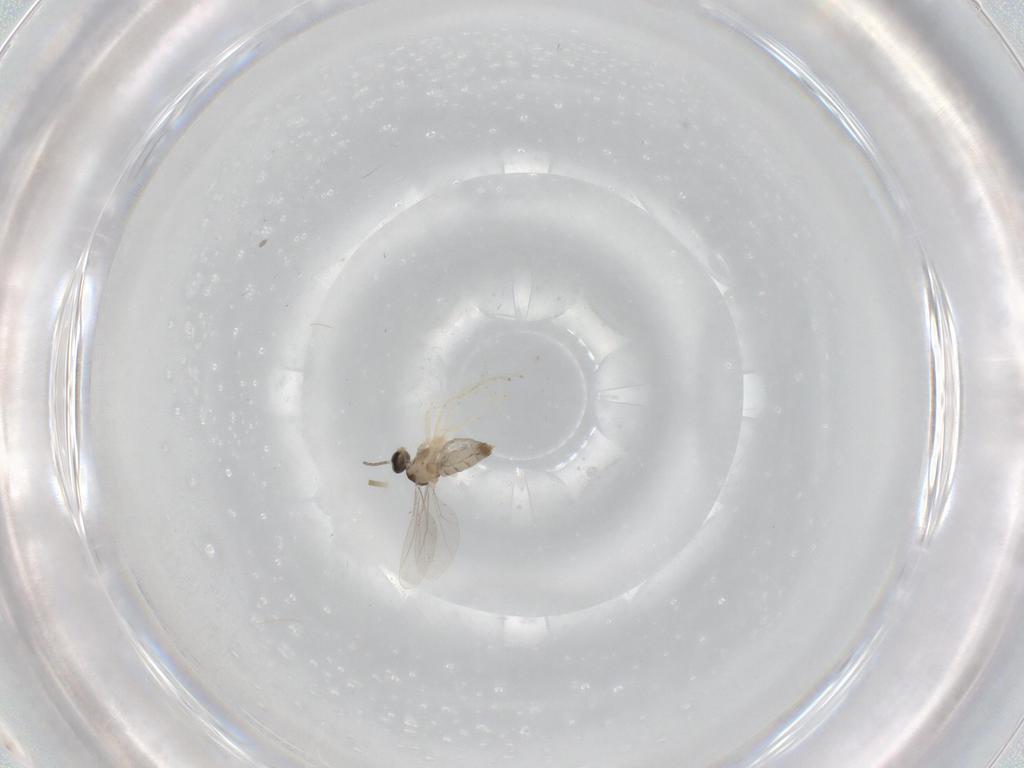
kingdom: Animalia
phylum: Arthropoda
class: Insecta
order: Diptera
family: Cecidomyiidae
